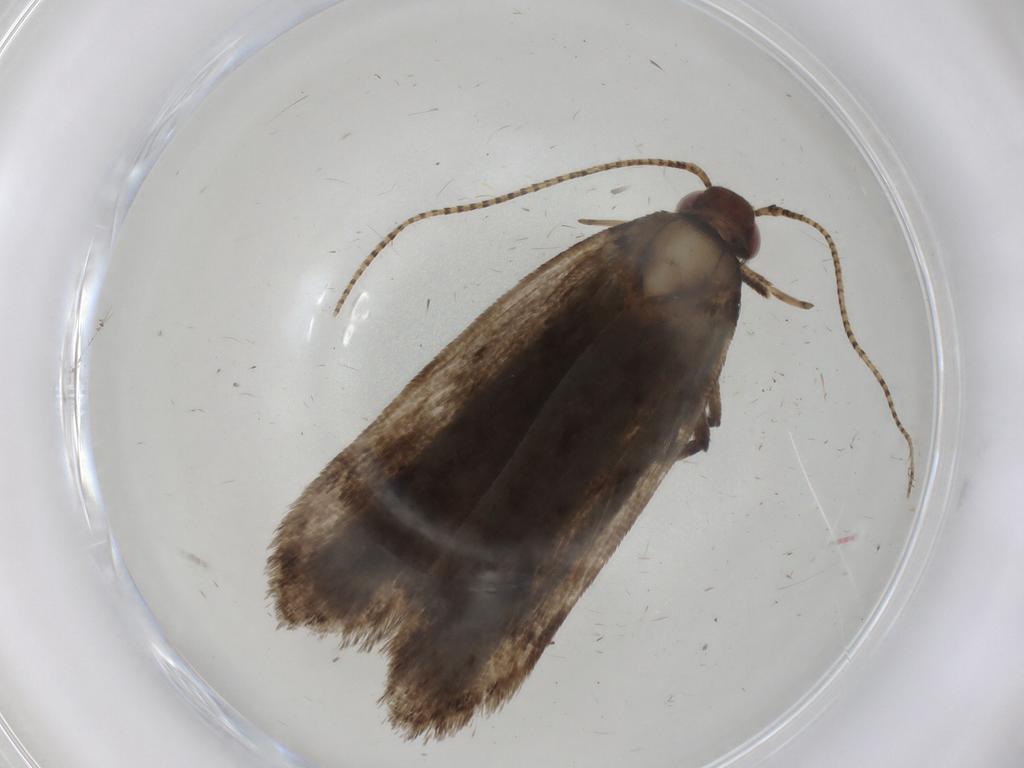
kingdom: Animalia
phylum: Arthropoda
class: Insecta
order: Lepidoptera
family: Gelechiidae
